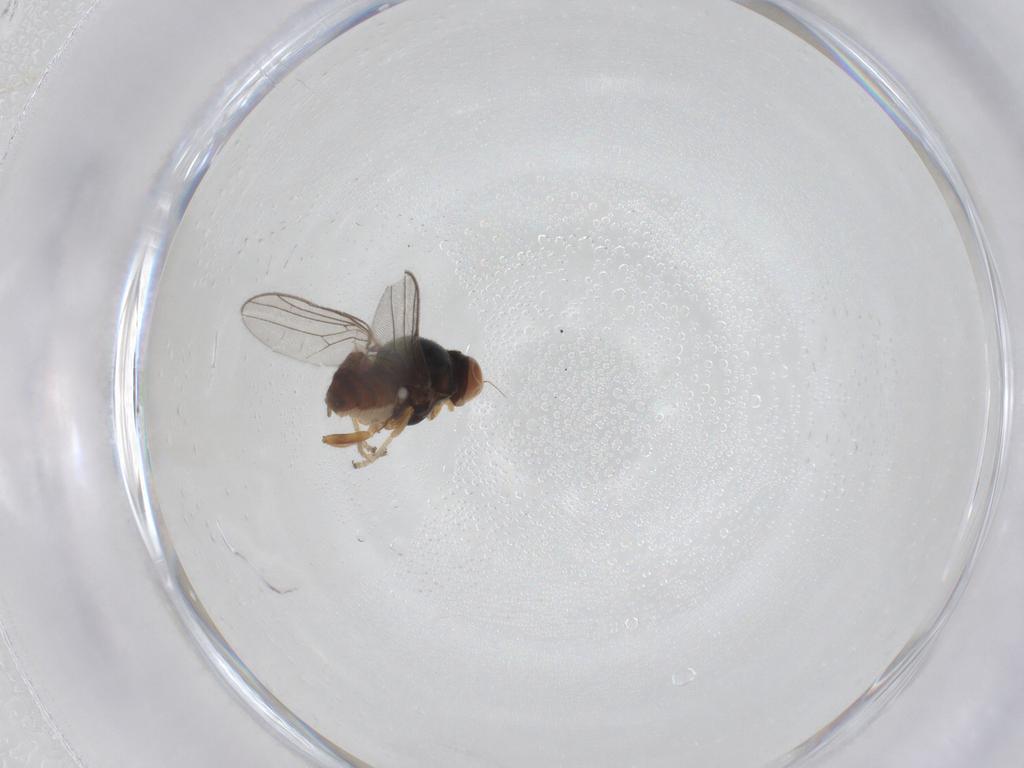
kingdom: Animalia
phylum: Arthropoda
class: Insecta
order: Diptera
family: Chloropidae
